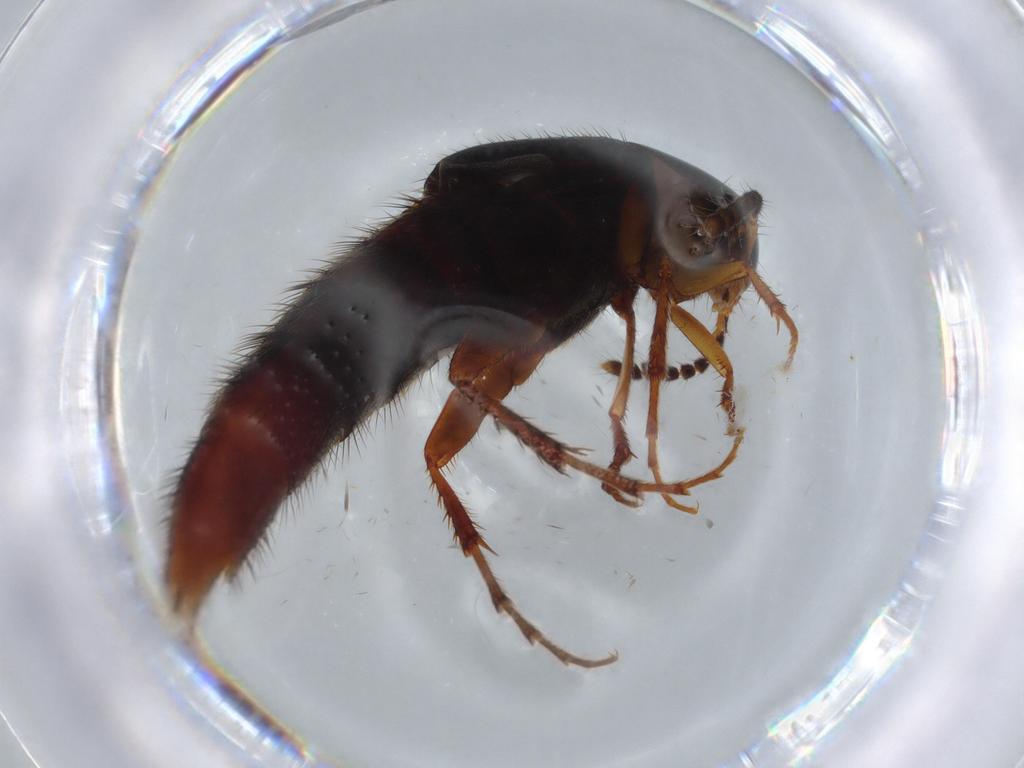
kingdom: Animalia
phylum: Arthropoda
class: Insecta
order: Coleoptera
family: Staphylinidae
